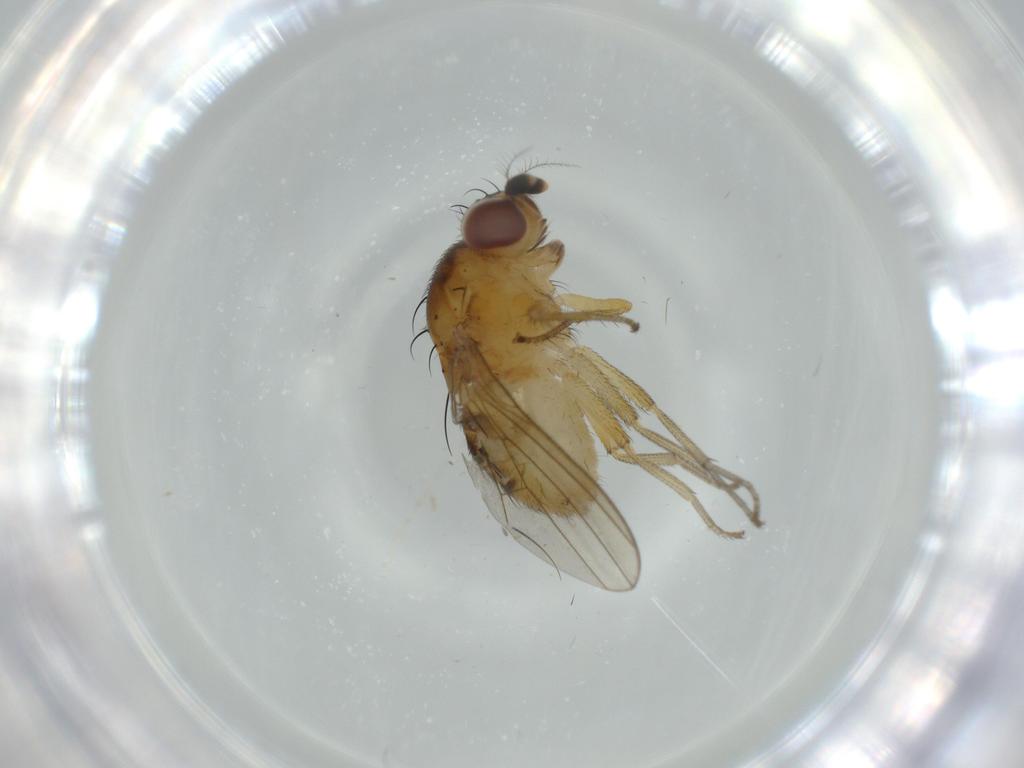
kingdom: Animalia
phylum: Arthropoda
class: Insecta
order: Diptera
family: Lauxaniidae
